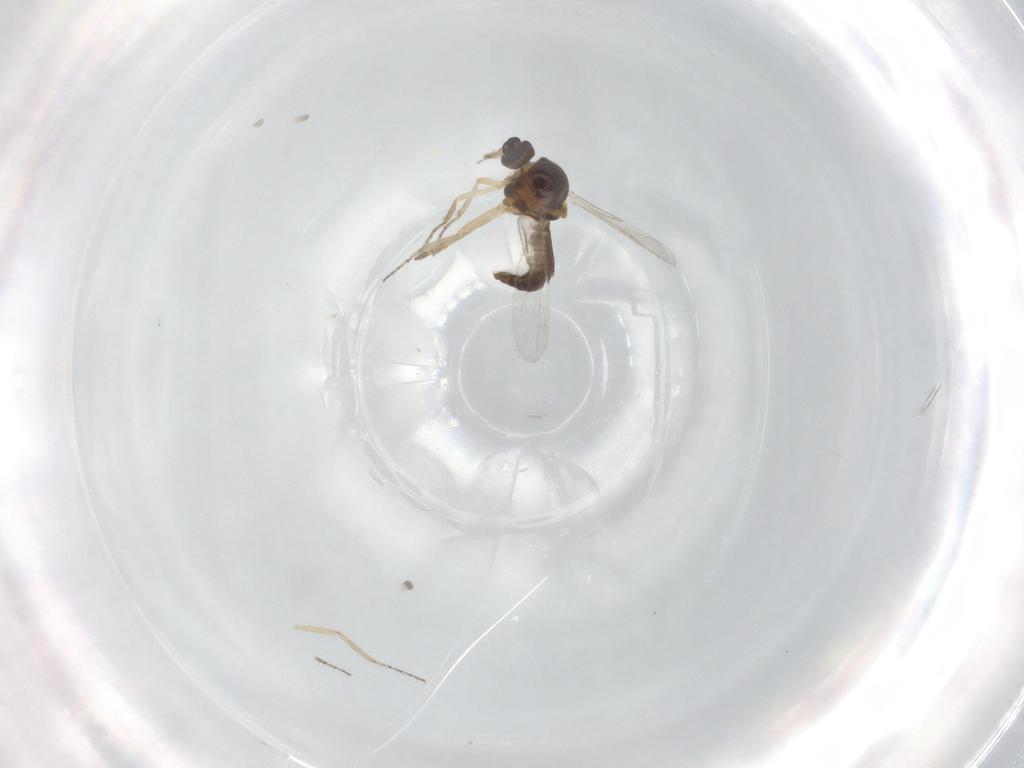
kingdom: Animalia
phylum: Arthropoda
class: Insecta
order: Diptera
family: Ceratopogonidae
